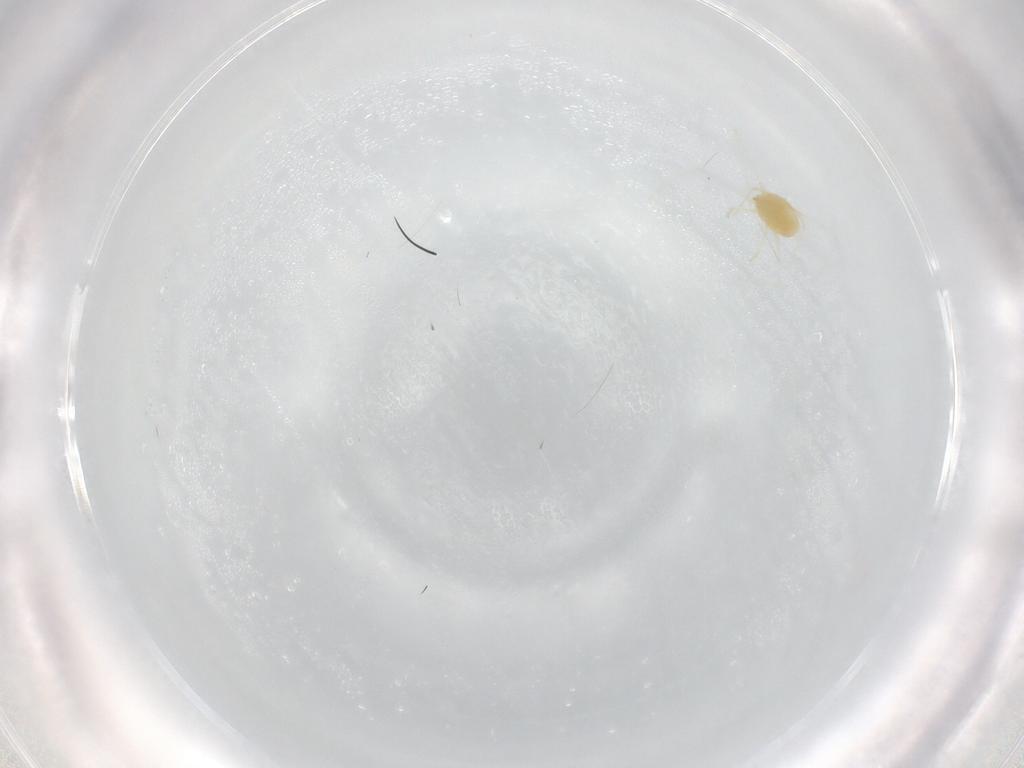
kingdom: Animalia
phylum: Arthropoda
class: Arachnida
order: Trombidiformes
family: Tetranychidae
